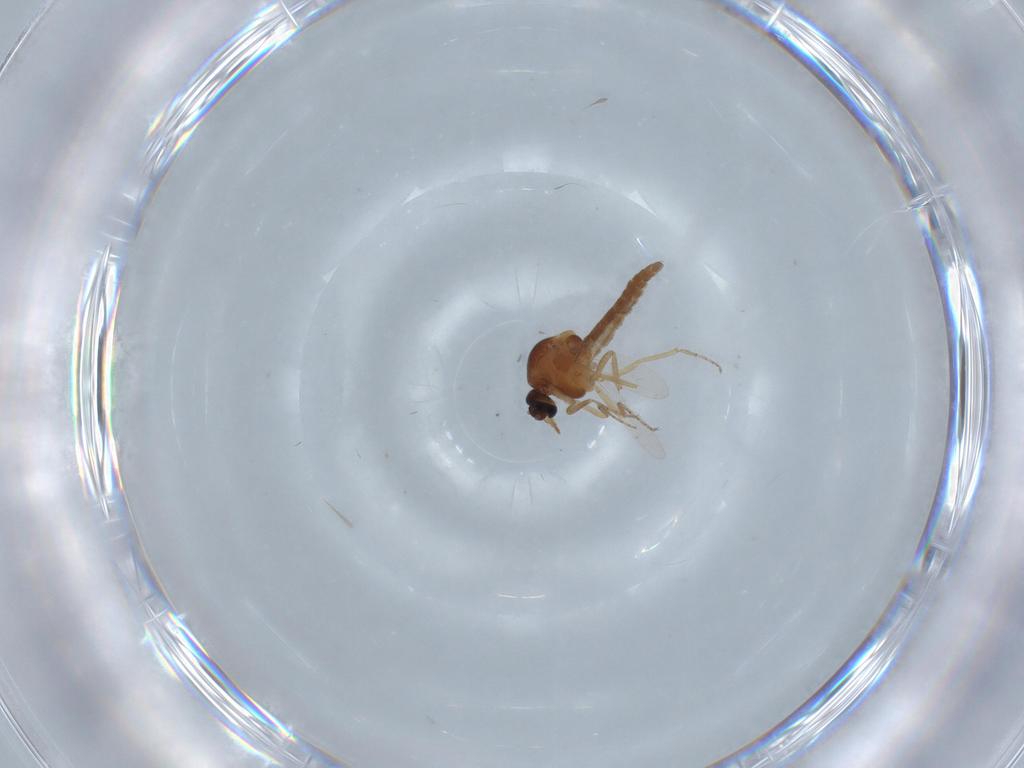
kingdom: Animalia
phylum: Arthropoda
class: Insecta
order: Diptera
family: Ceratopogonidae
